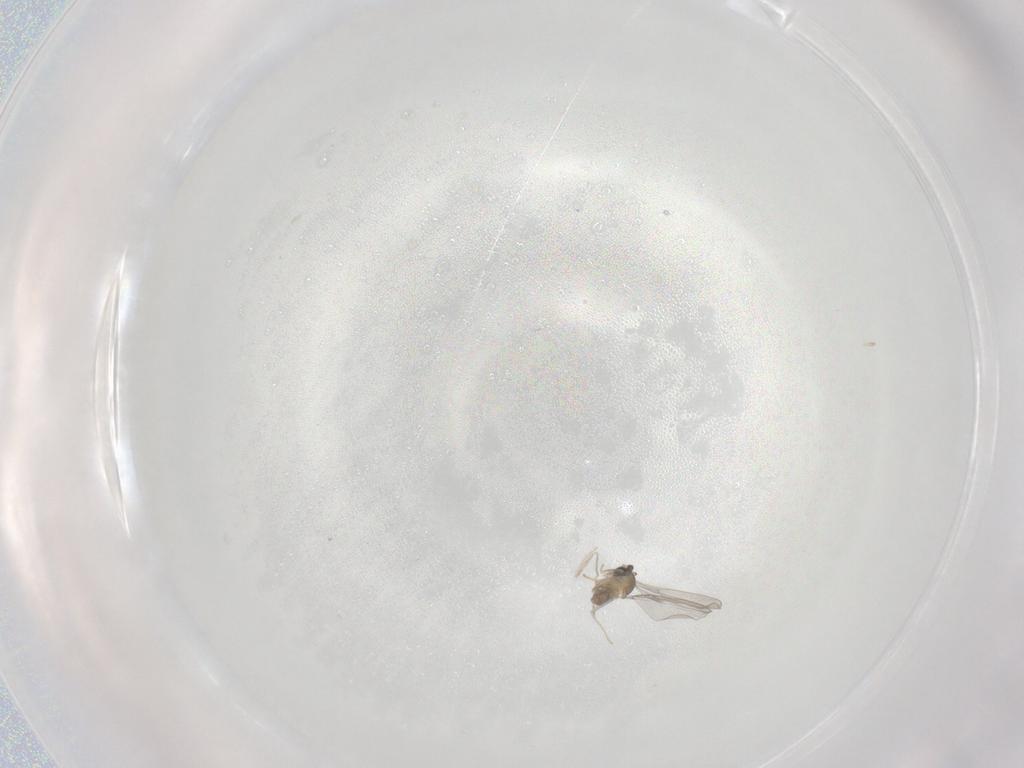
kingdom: Animalia
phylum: Arthropoda
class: Insecta
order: Diptera
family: Cecidomyiidae
